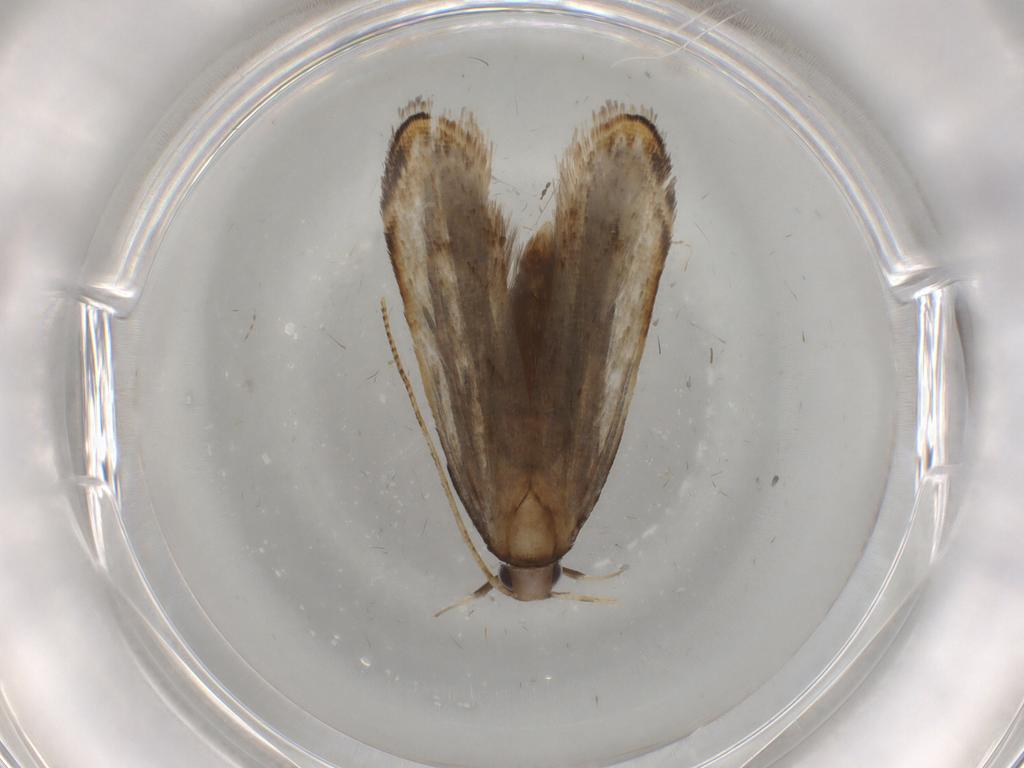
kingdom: Animalia
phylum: Arthropoda
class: Insecta
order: Lepidoptera
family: Gelechiidae
